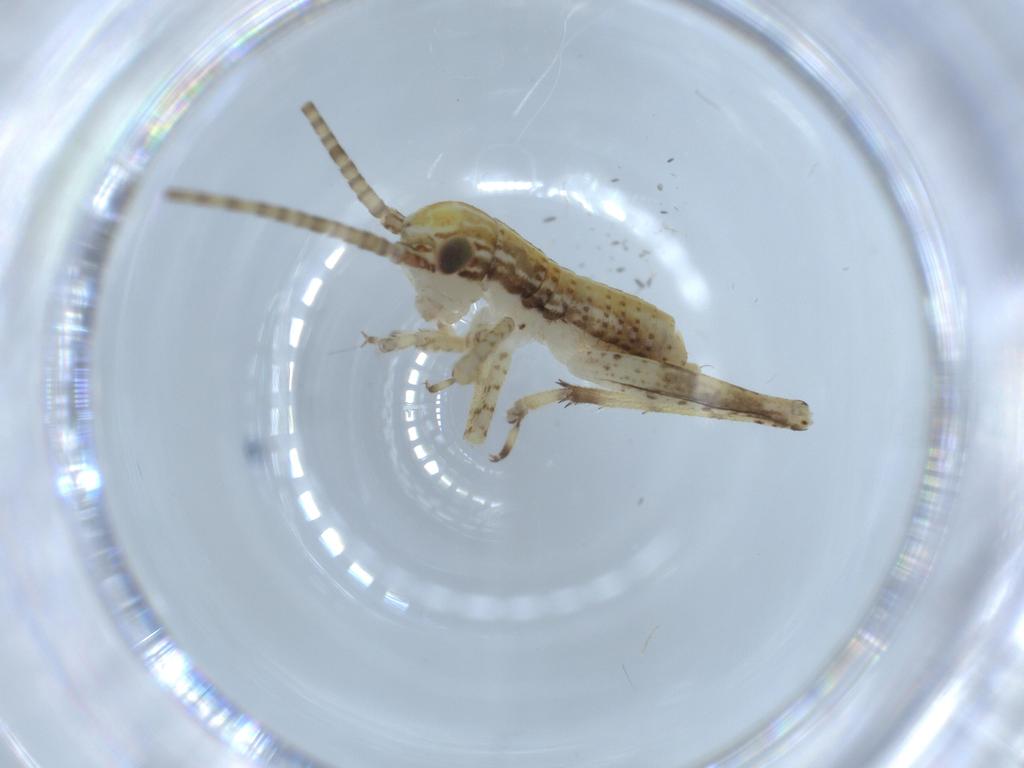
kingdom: Animalia
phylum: Arthropoda
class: Insecta
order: Orthoptera
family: Gryllidae
